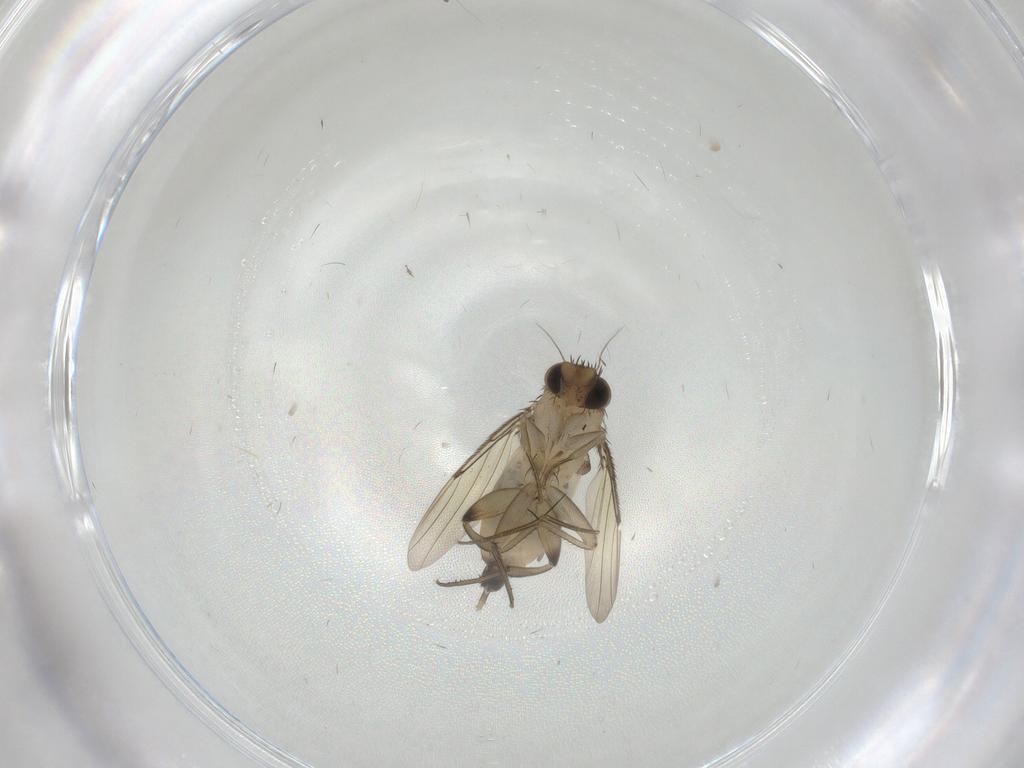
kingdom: Animalia
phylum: Arthropoda
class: Insecta
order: Diptera
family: Phoridae
